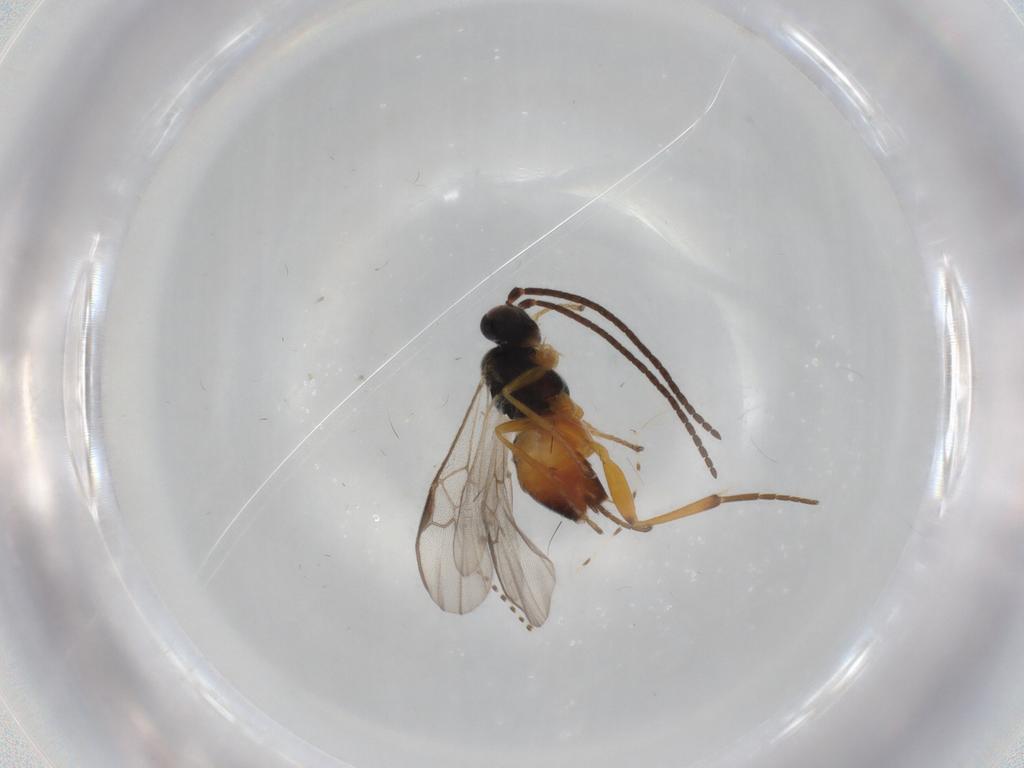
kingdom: Animalia
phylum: Arthropoda
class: Insecta
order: Hymenoptera
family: Braconidae
